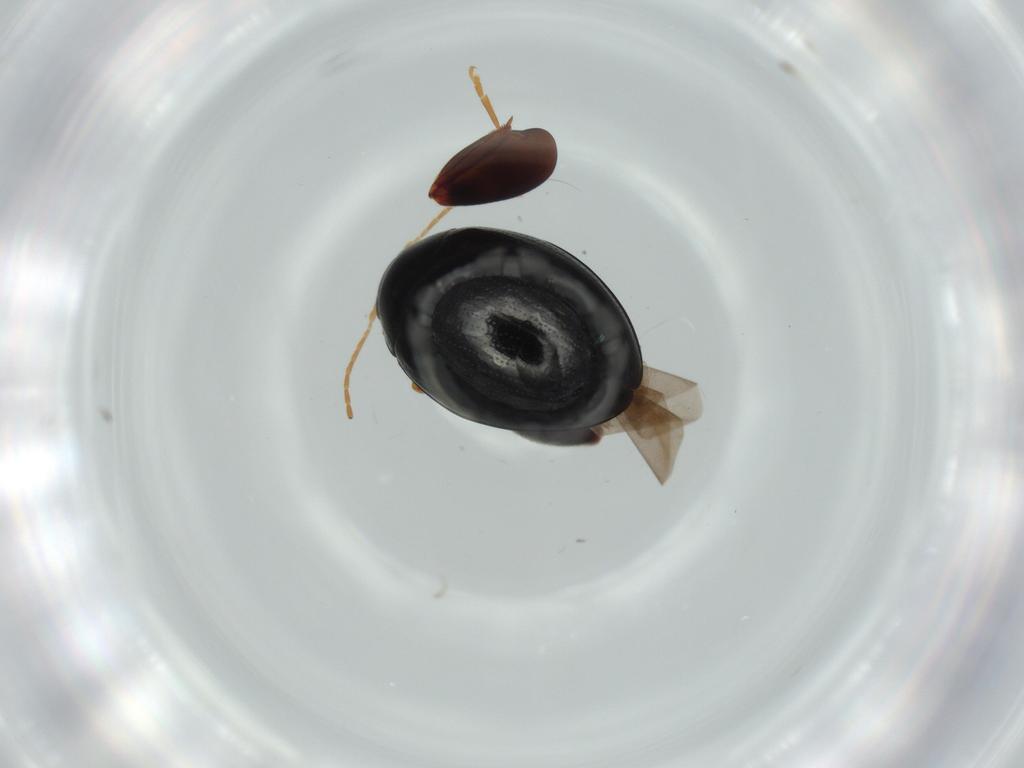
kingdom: Animalia
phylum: Arthropoda
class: Insecta
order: Coleoptera
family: Chrysomelidae
